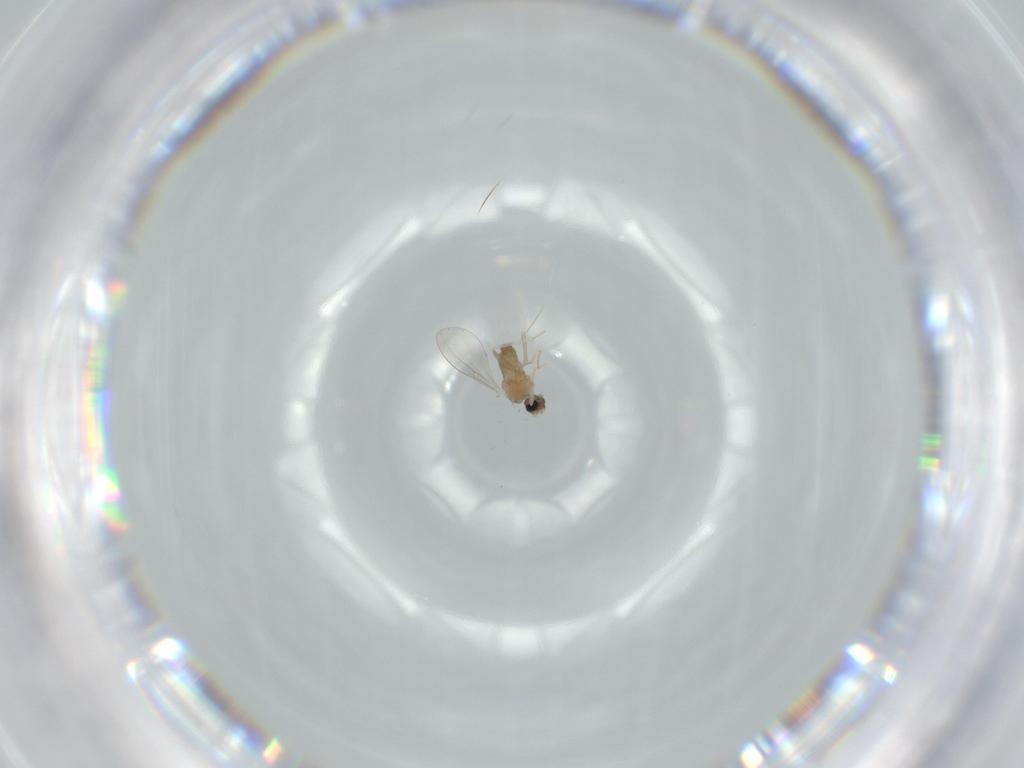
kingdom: Animalia
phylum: Arthropoda
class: Insecta
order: Diptera
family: Cecidomyiidae
